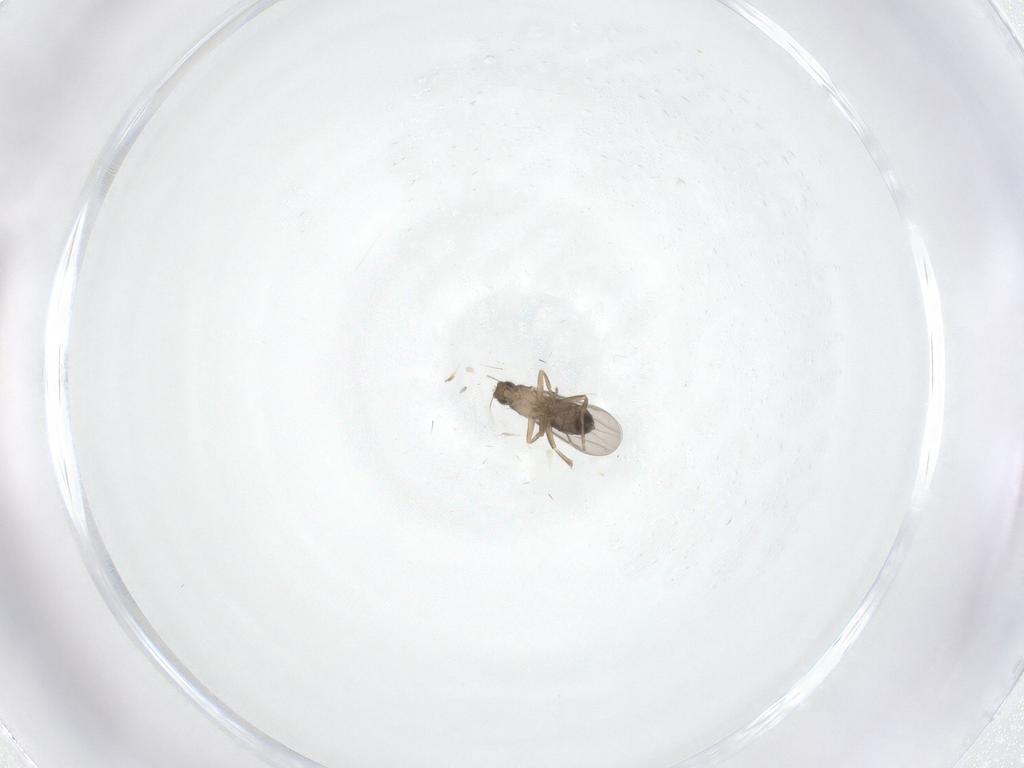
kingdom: Animalia
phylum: Arthropoda
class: Insecta
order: Diptera
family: Phoridae
